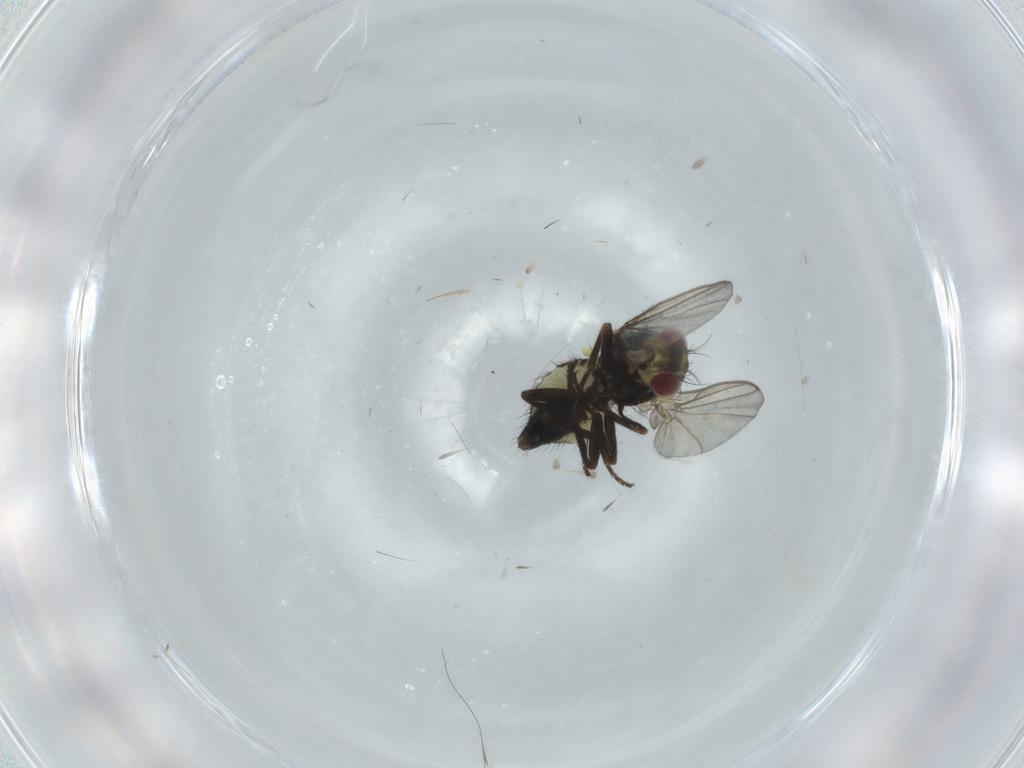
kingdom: Animalia
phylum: Arthropoda
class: Insecta
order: Diptera
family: Agromyzidae
